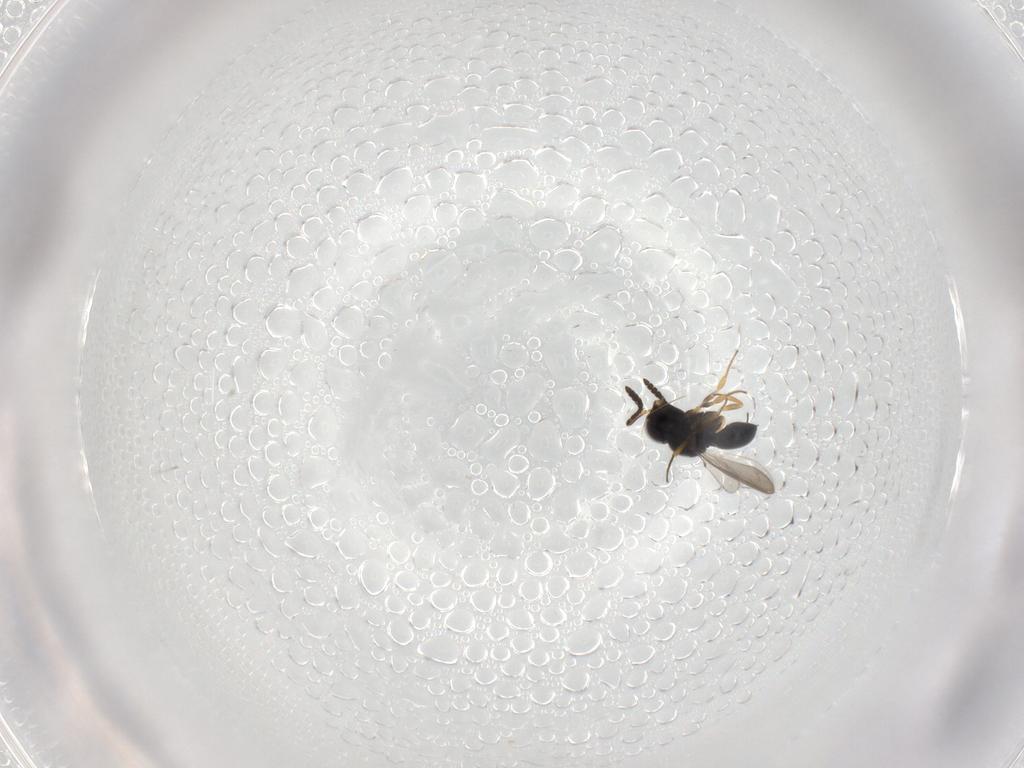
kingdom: Animalia
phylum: Arthropoda
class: Insecta
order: Hymenoptera
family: Scelionidae
